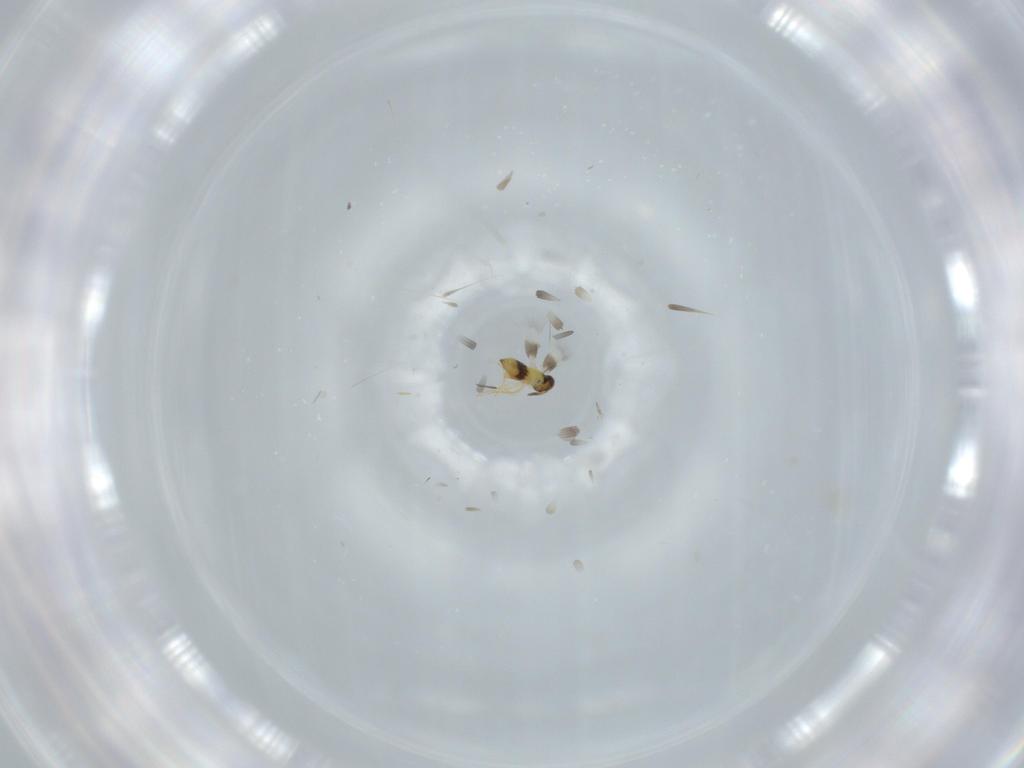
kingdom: Animalia
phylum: Arthropoda
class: Insecta
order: Hymenoptera
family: Signiphoridae
